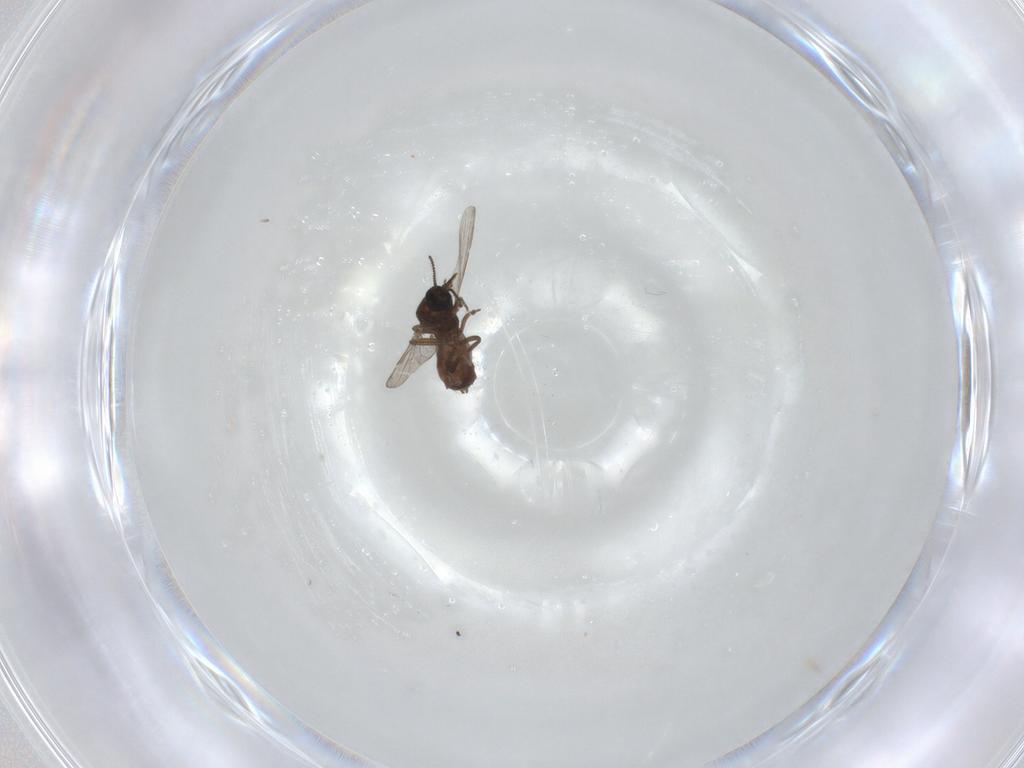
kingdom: Animalia
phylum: Arthropoda
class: Insecta
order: Diptera
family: Ceratopogonidae
